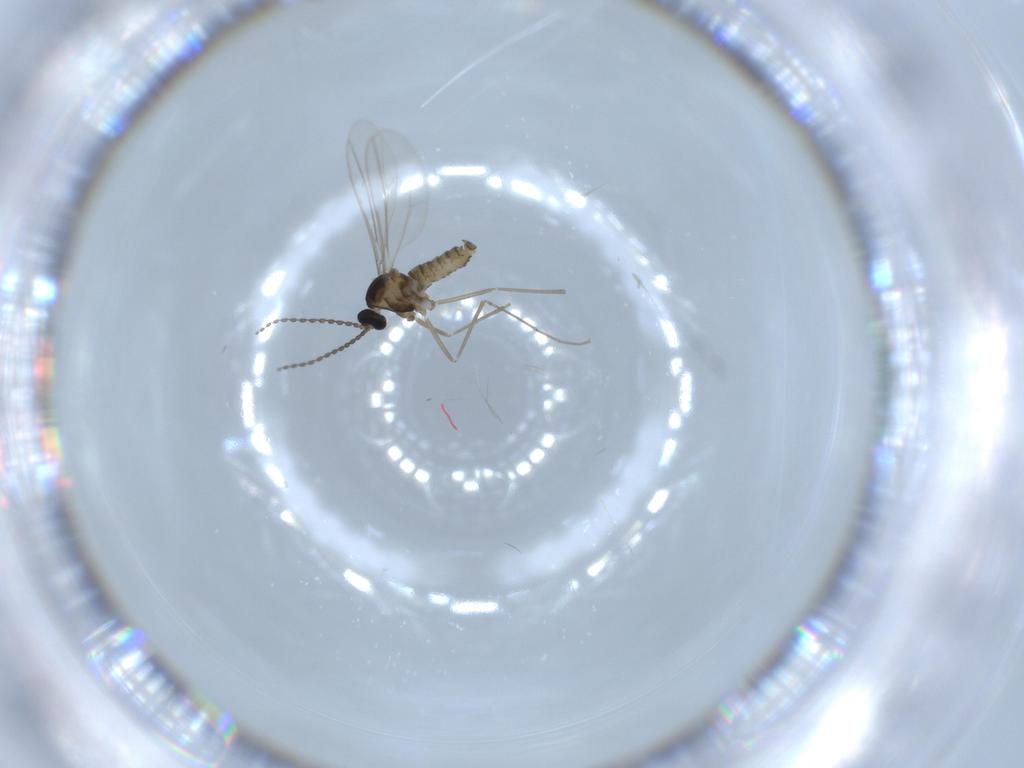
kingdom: Animalia
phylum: Arthropoda
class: Insecta
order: Diptera
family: Cecidomyiidae
